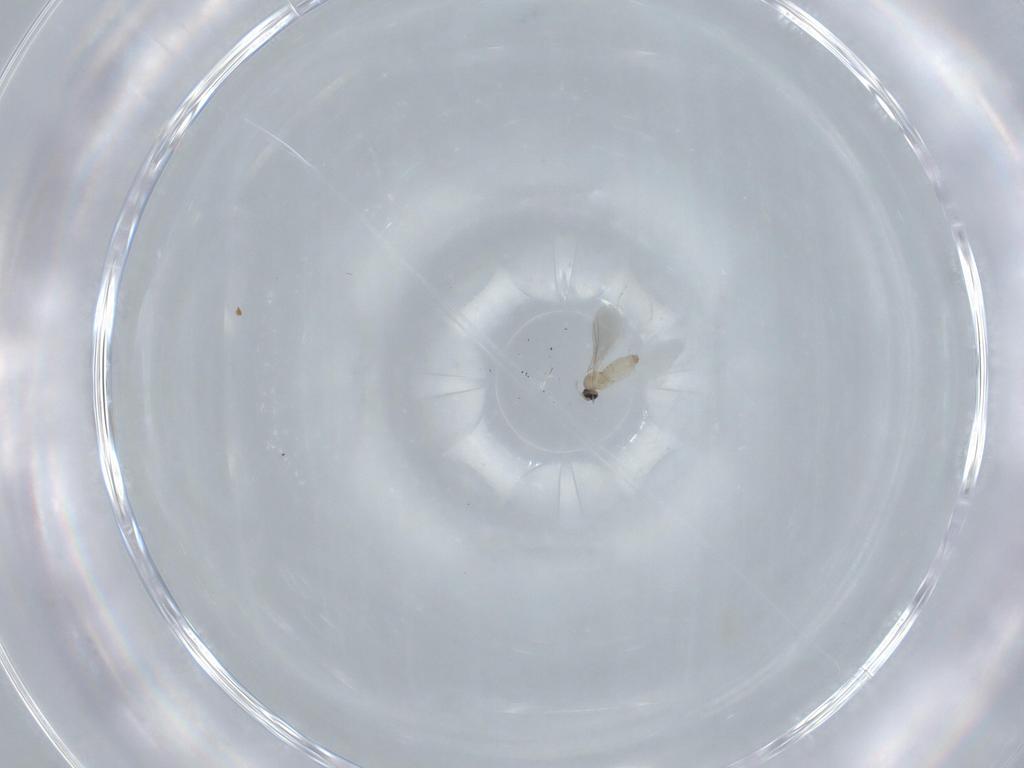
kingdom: Animalia
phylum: Arthropoda
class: Insecta
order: Diptera
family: Cecidomyiidae
